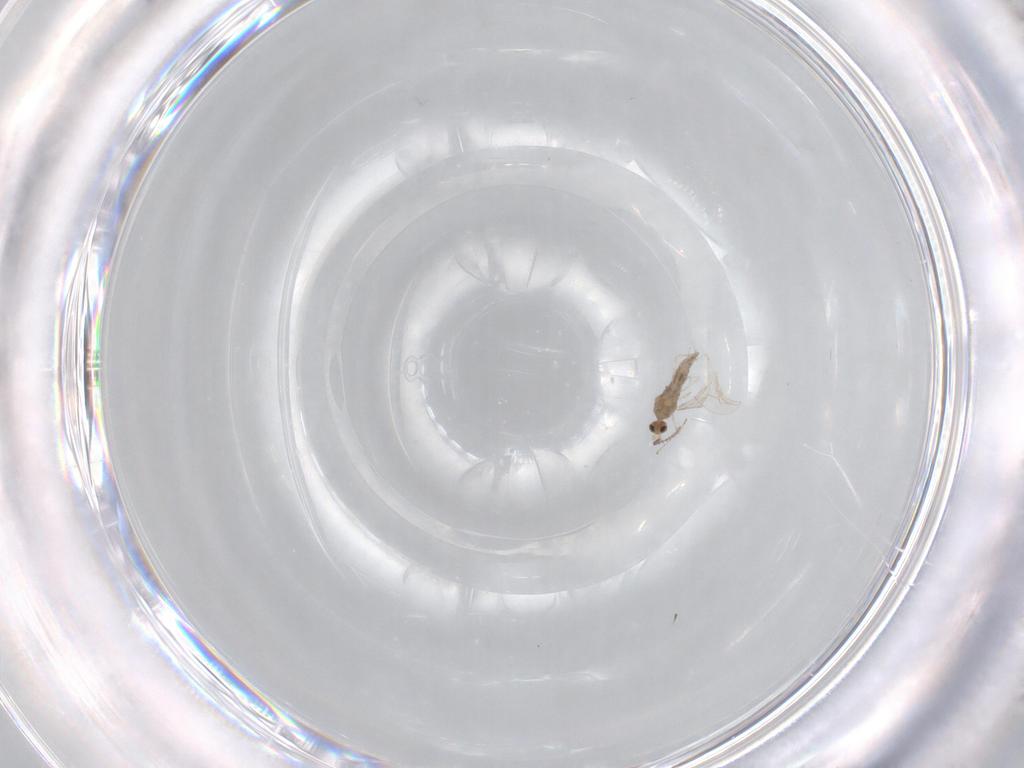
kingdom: Animalia
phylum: Arthropoda
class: Insecta
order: Diptera
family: Cecidomyiidae
